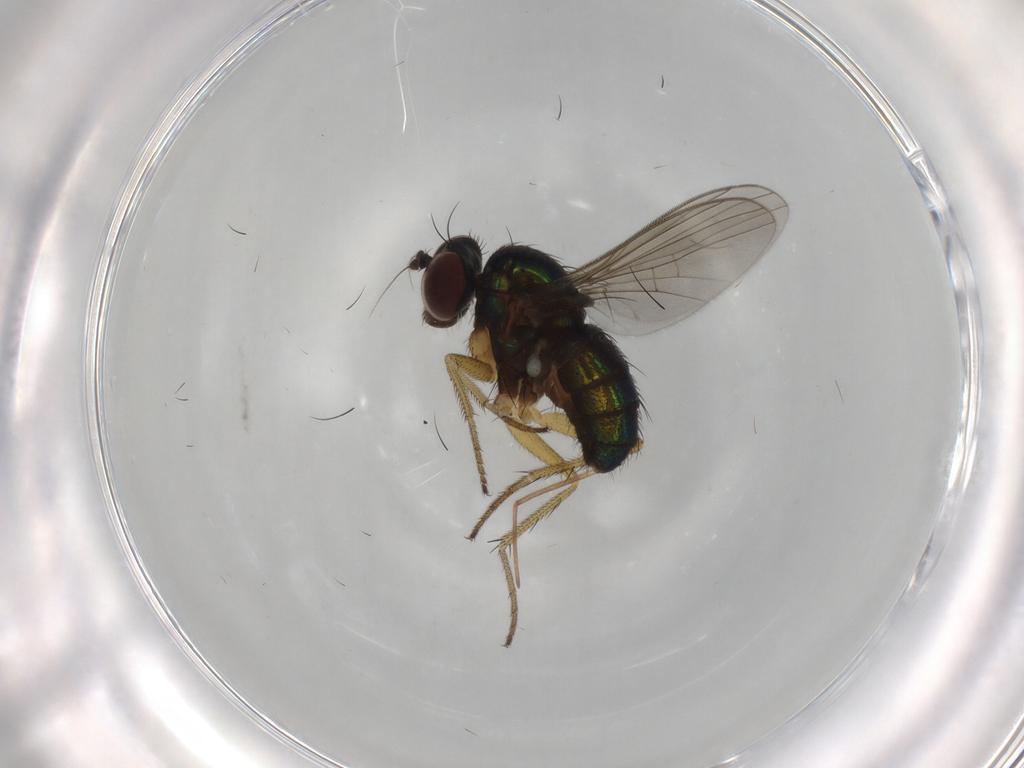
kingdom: Animalia
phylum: Arthropoda
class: Insecta
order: Diptera
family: Dolichopodidae
